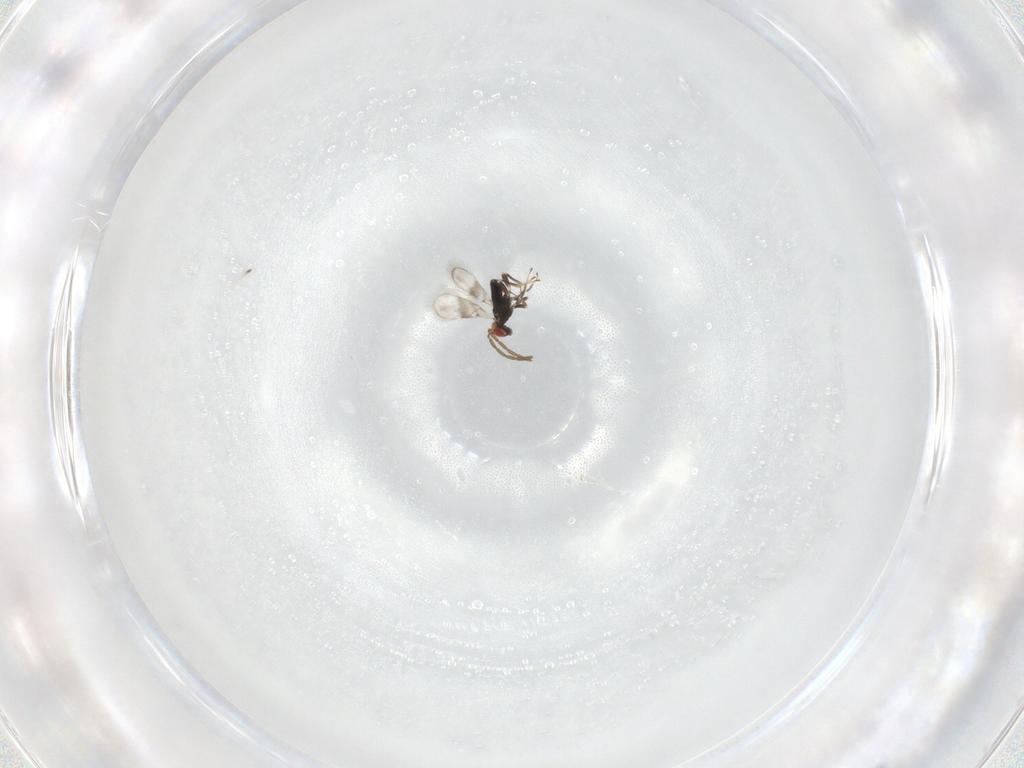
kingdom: Animalia
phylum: Arthropoda
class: Insecta
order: Hymenoptera
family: Azotidae
